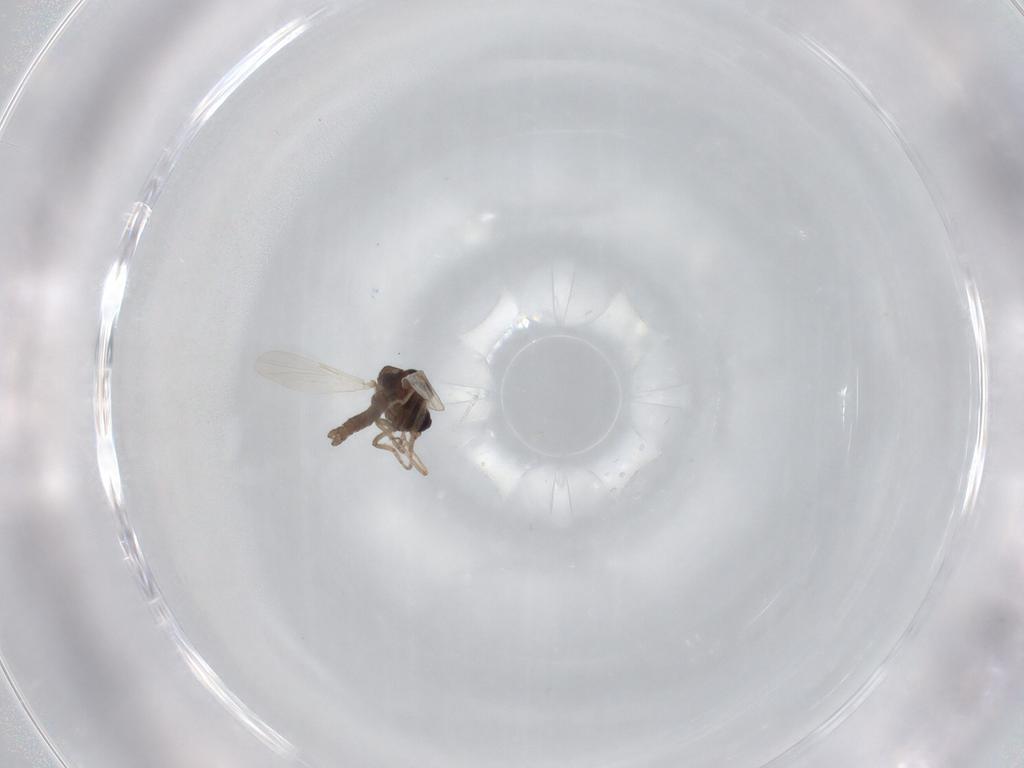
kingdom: Animalia
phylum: Arthropoda
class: Insecta
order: Diptera
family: Ceratopogonidae
